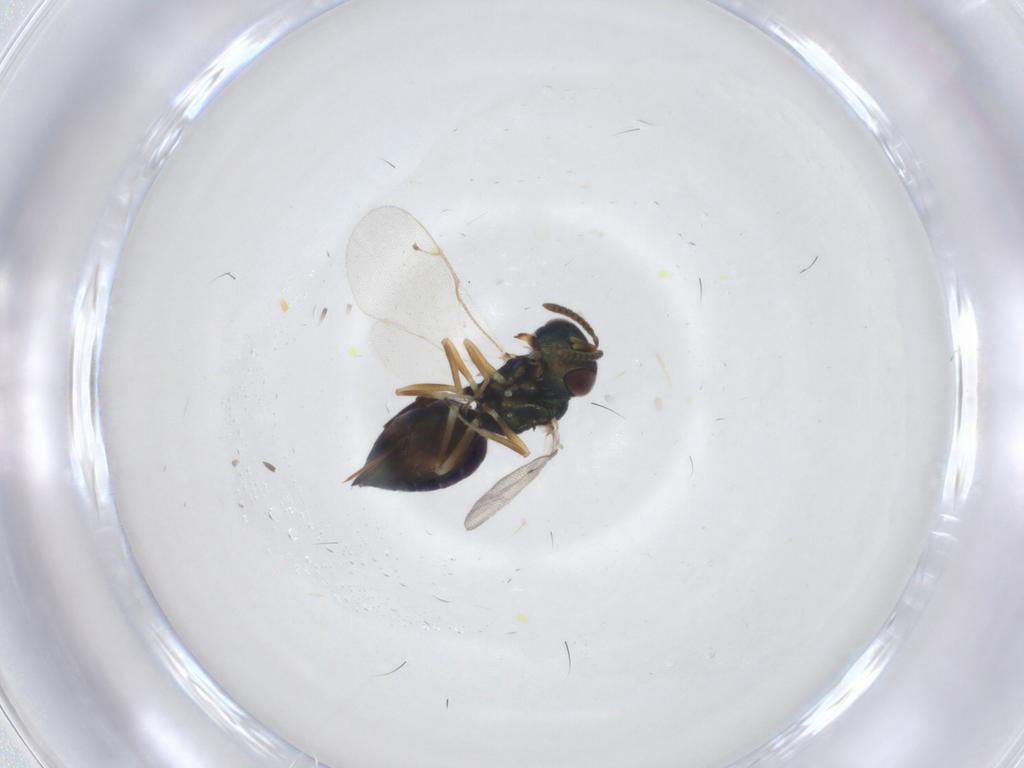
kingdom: Animalia
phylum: Arthropoda
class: Insecta
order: Hymenoptera
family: Pteromalidae
